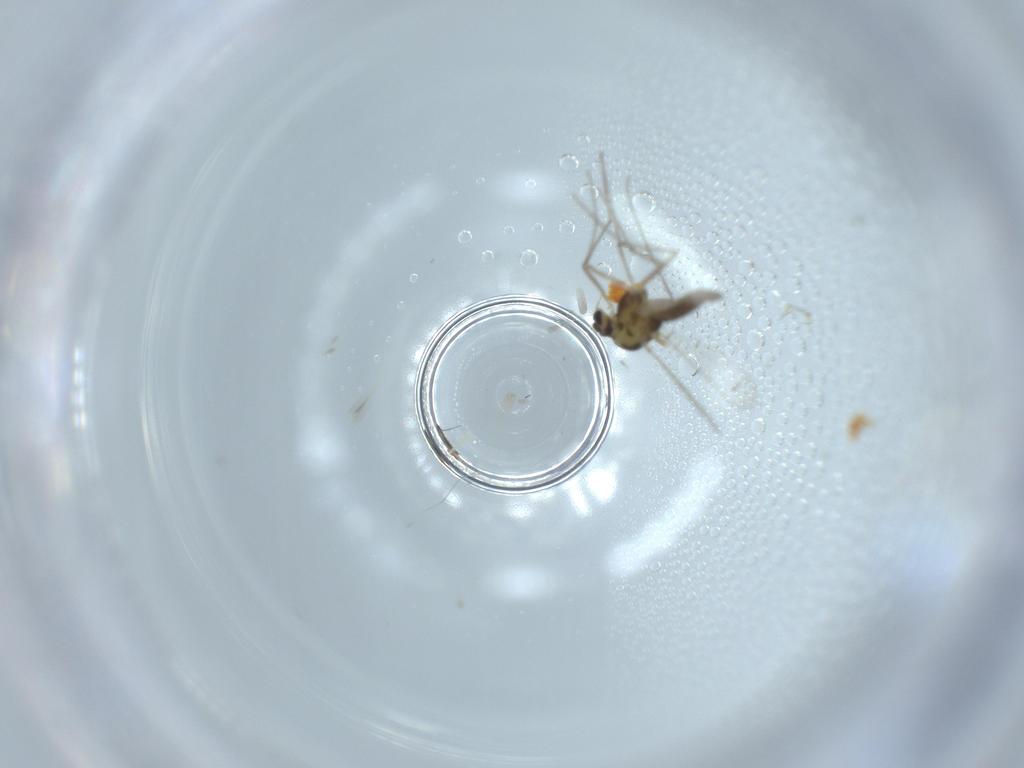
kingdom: Animalia
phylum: Arthropoda
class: Insecta
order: Diptera
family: Chironomidae
